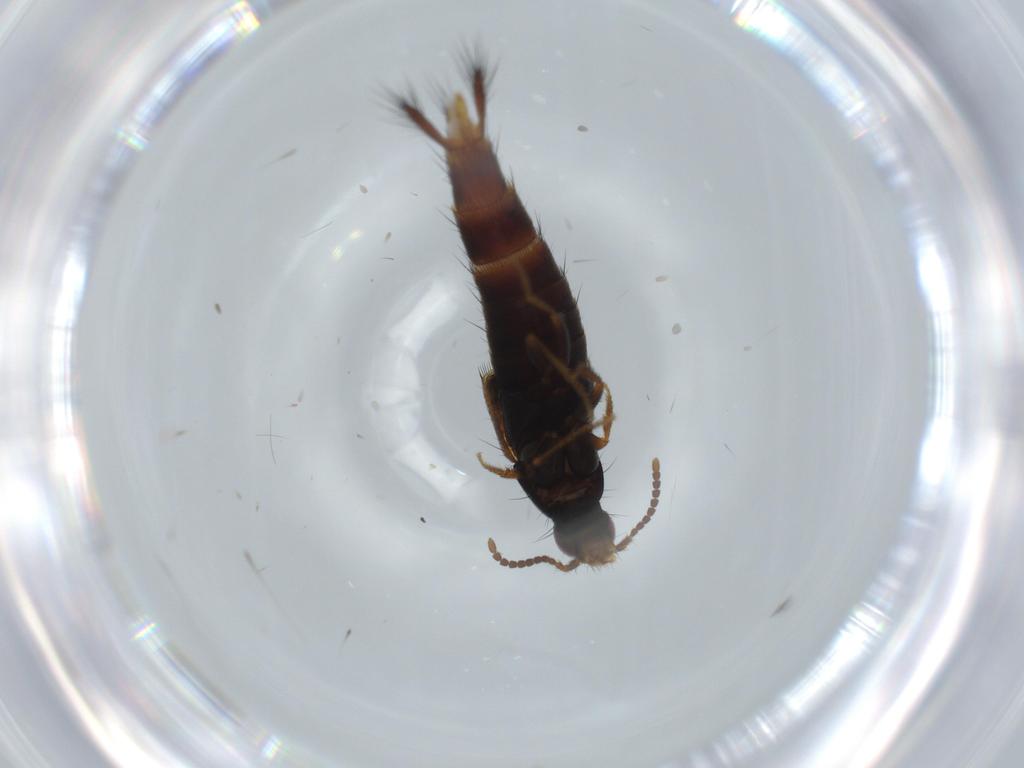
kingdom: Animalia
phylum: Arthropoda
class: Insecta
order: Coleoptera
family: Staphylinidae
